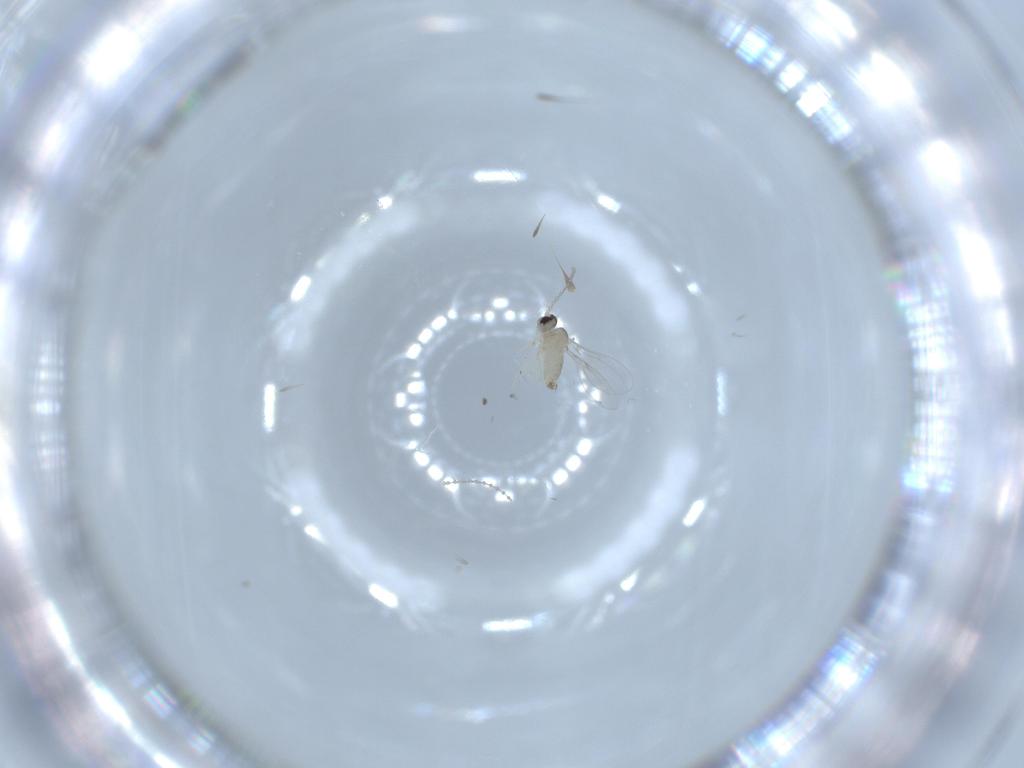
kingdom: Animalia
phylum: Arthropoda
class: Insecta
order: Diptera
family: Cecidomyiidae
